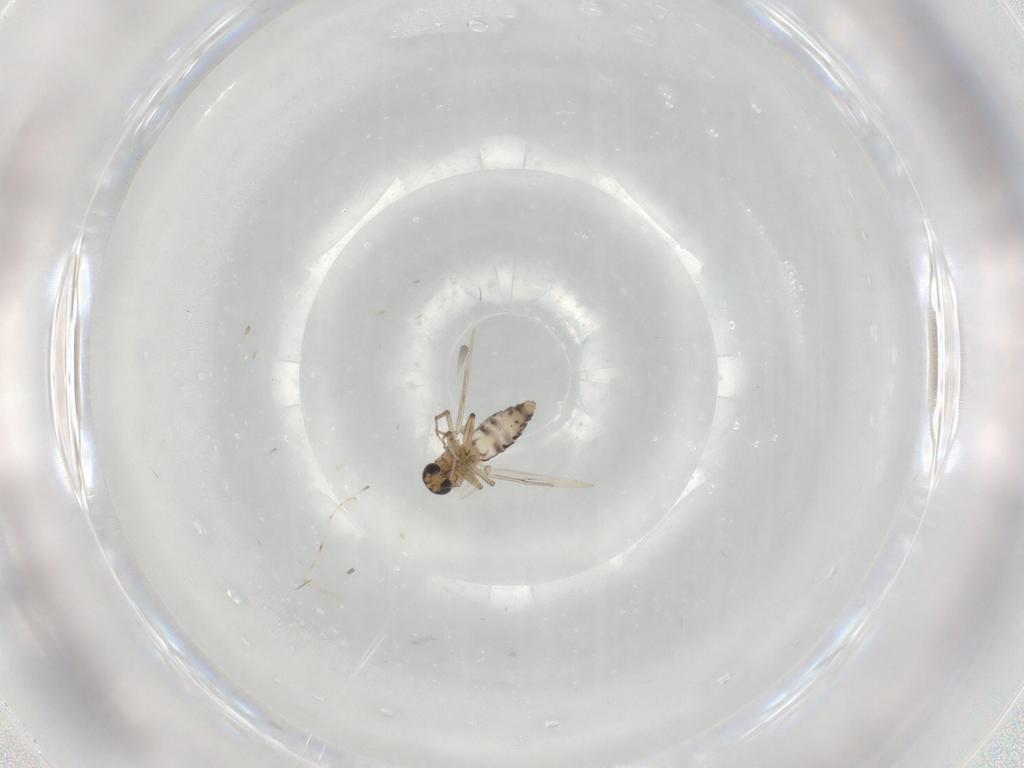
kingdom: Animalia
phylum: Arthropoda
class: Insecta
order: Diptera
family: Ceratopogonidae
